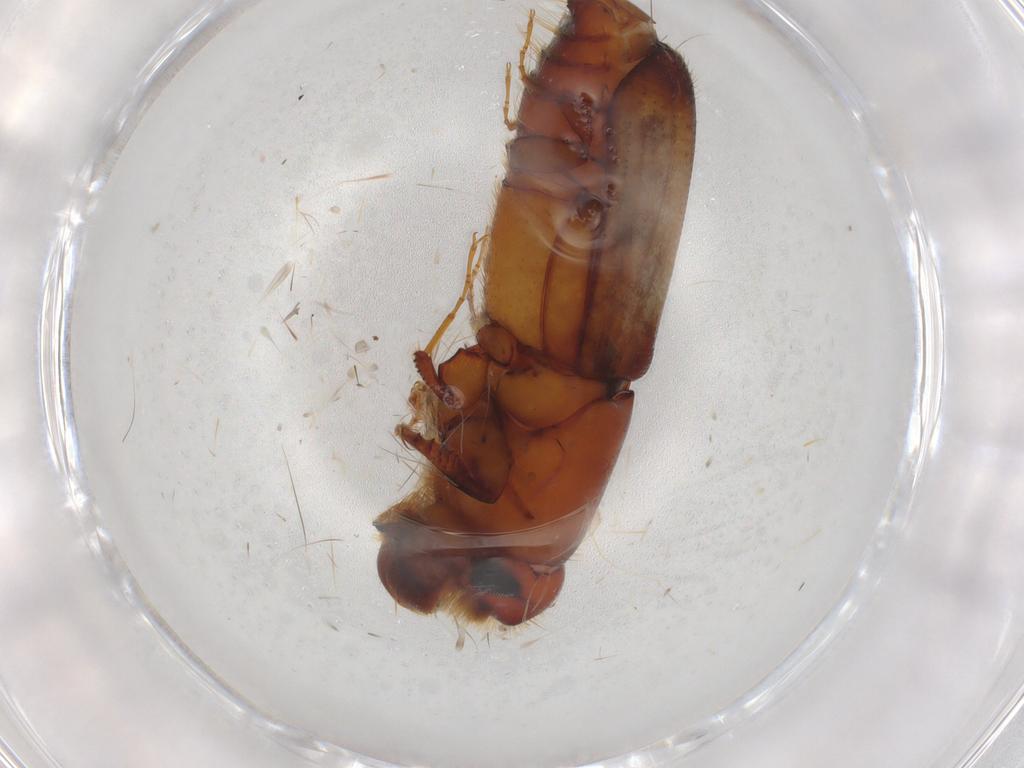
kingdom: Animalia
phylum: Arthropoda
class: Insecta
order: Coleoptera
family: Curculionidae
